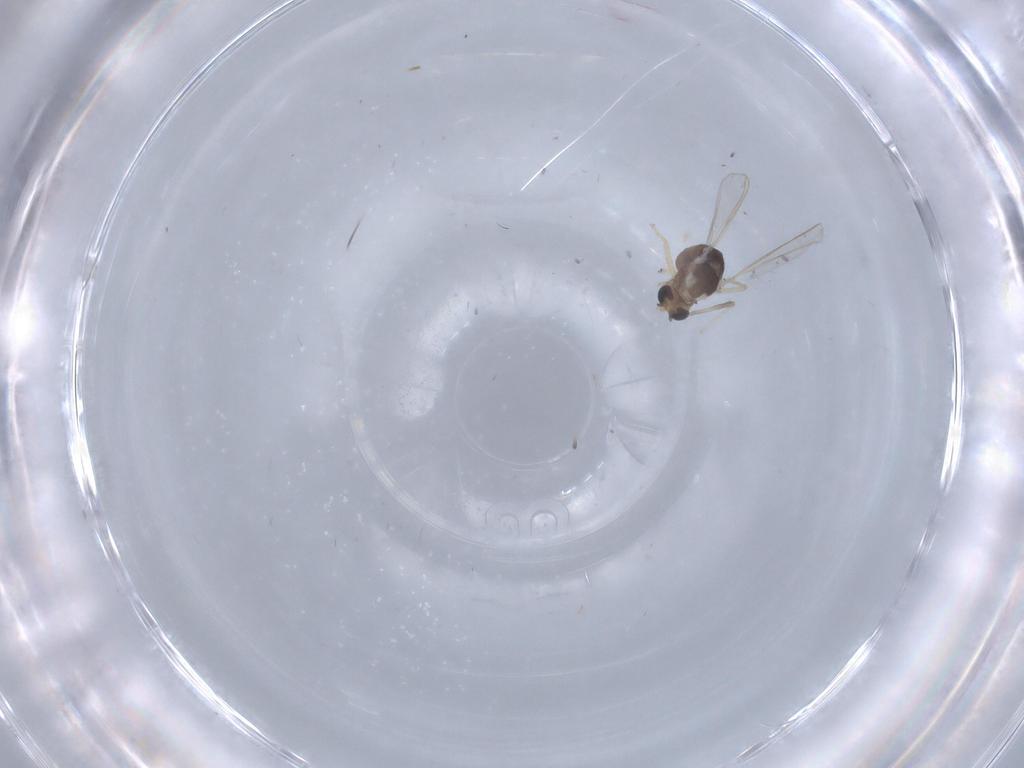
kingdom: Animalia
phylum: Arthropoda
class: Insecta
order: Diptera
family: Chironomidae
